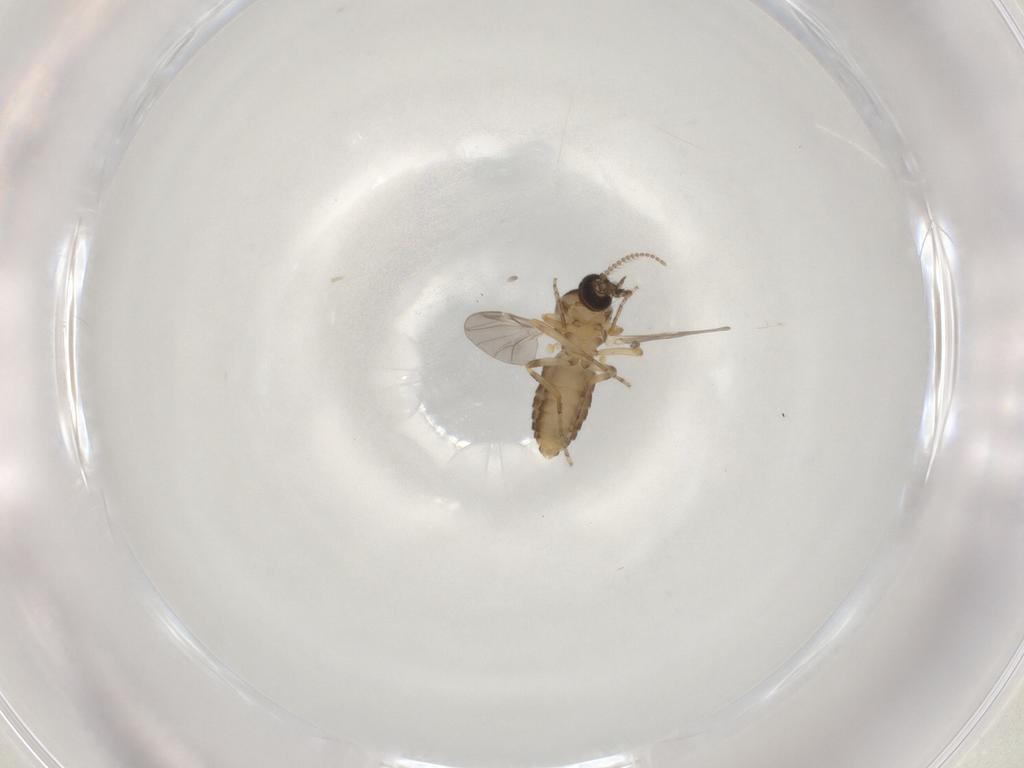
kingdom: Animalia
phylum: Arthropoda
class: Insecta
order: Diptera
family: Ceratopogonidae
